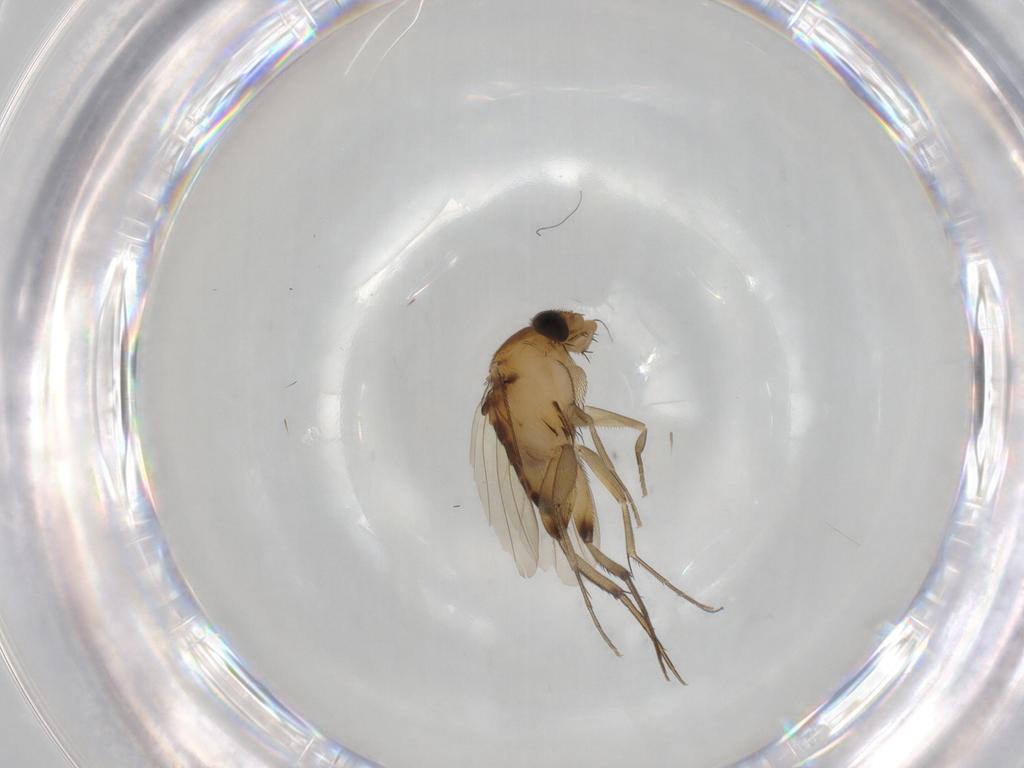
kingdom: Animalia
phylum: Arthropoda
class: Insecta
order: Diptera
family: Phoridae
